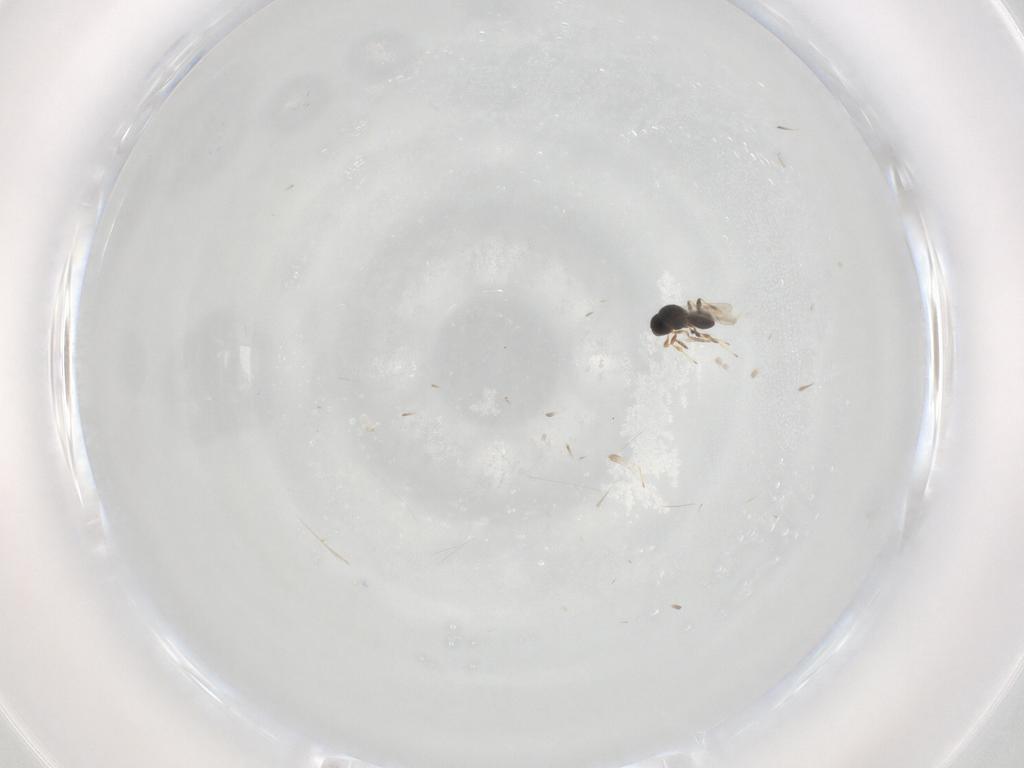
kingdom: Animalia
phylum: Arthropoda
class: Insecta
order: Hymenoptera
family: Platygastridae
